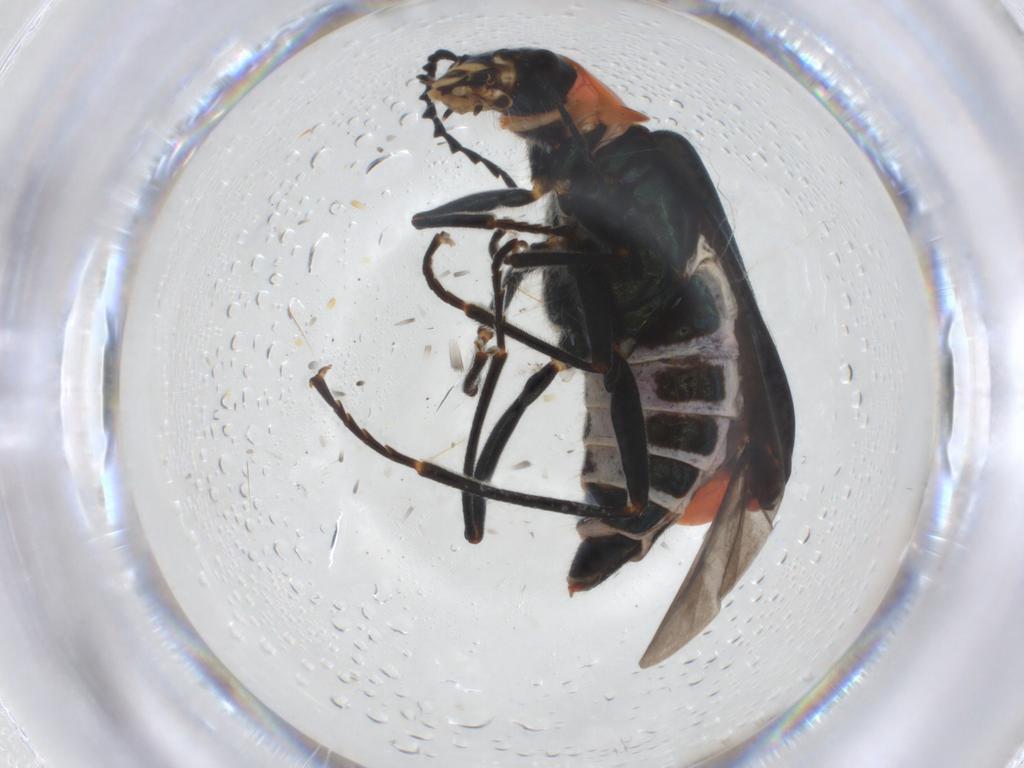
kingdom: Animalia
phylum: Arthropoda
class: Insecta
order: Coleoptera
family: Melyridae
